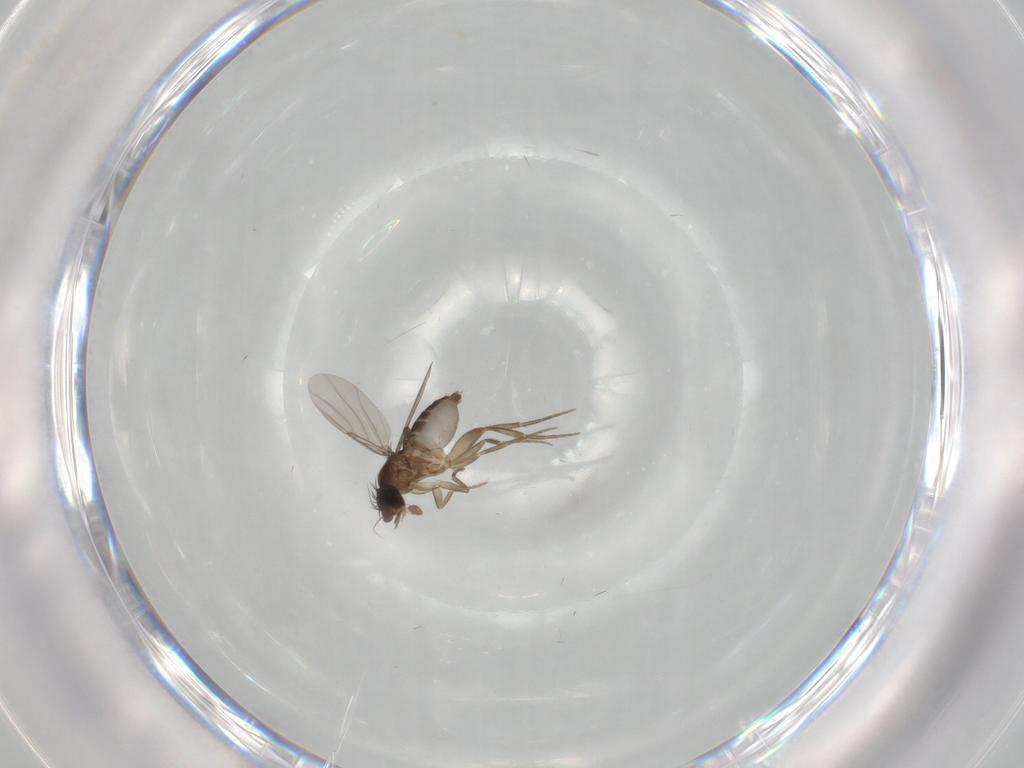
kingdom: Animalia
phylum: Arthropoda
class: Insecta
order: Diptera
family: Phoridae
